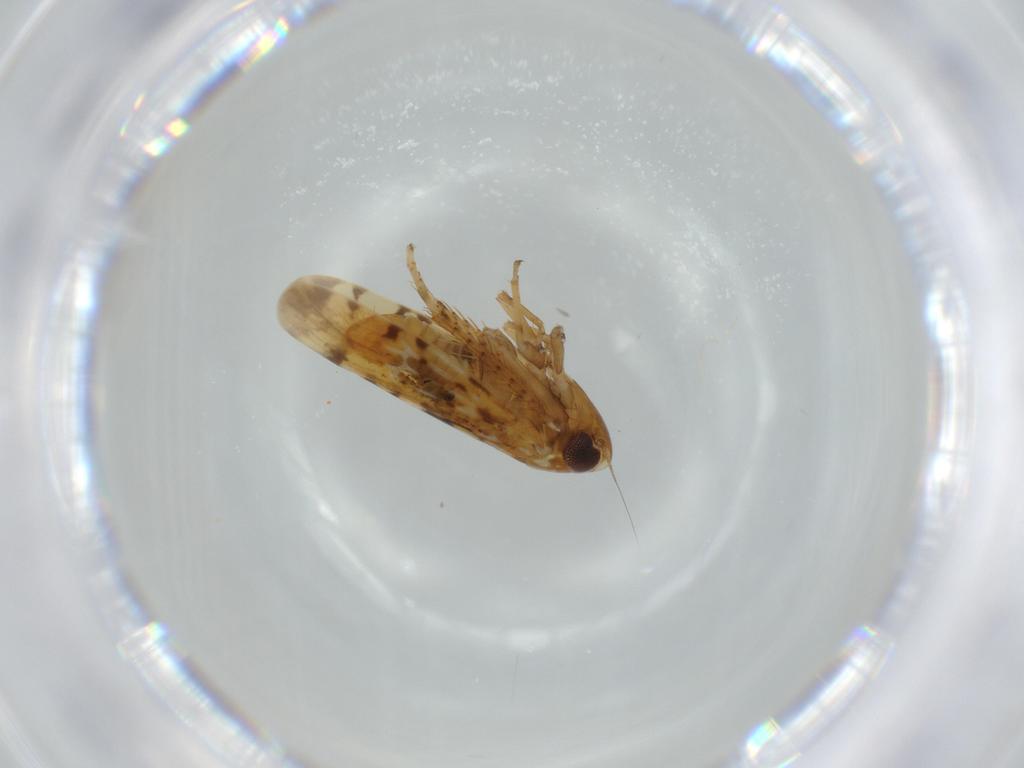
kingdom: Animalia
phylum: Arthropoda
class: Insecta
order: Hemiptera
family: Cicadellidae
